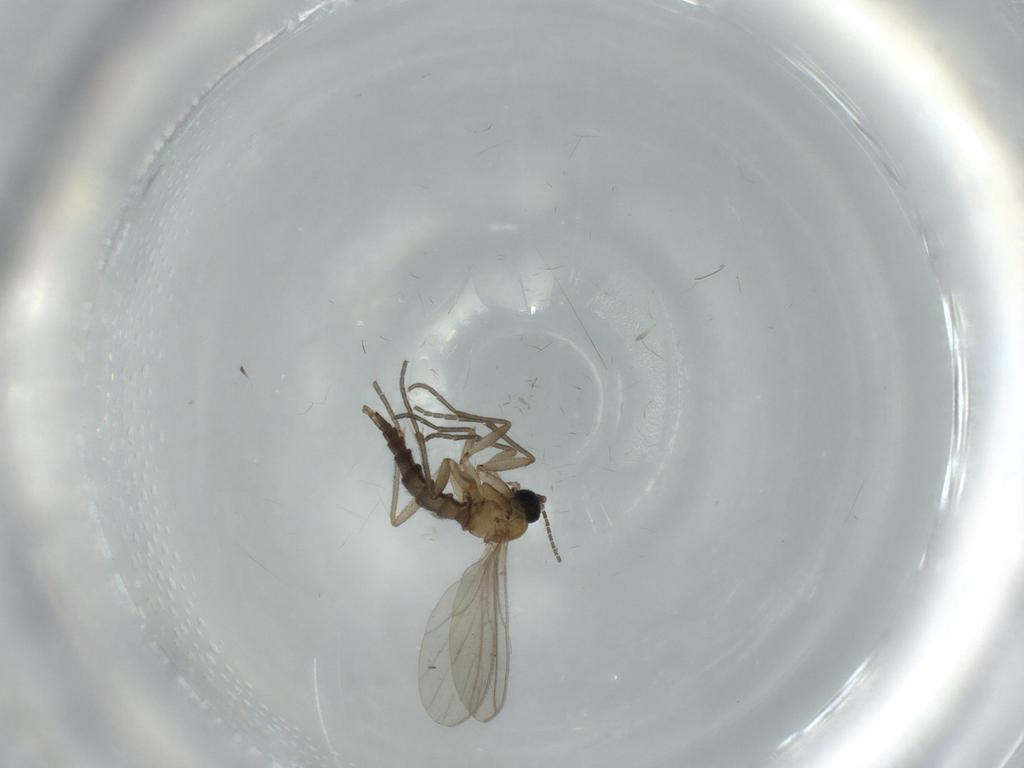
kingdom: Animalia
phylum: Arthropoda
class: Insecta
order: Diptera
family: Sciaridae
